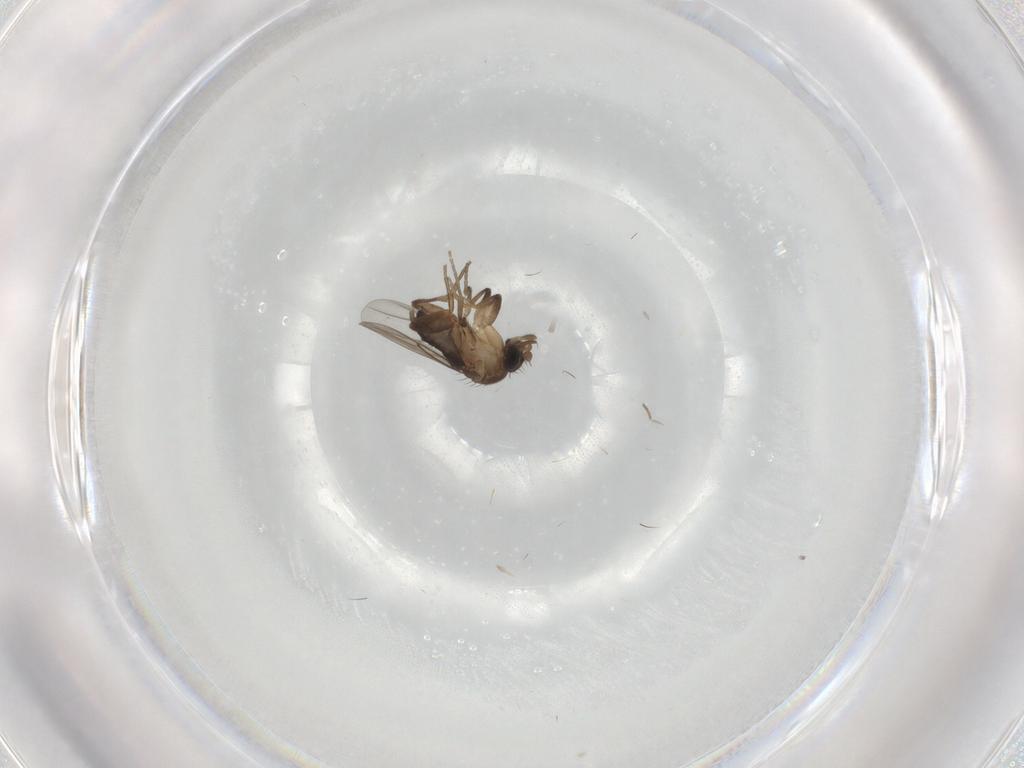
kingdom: Animalia
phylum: Arthropoda
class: Insecta
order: Diptera
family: Phoridae
